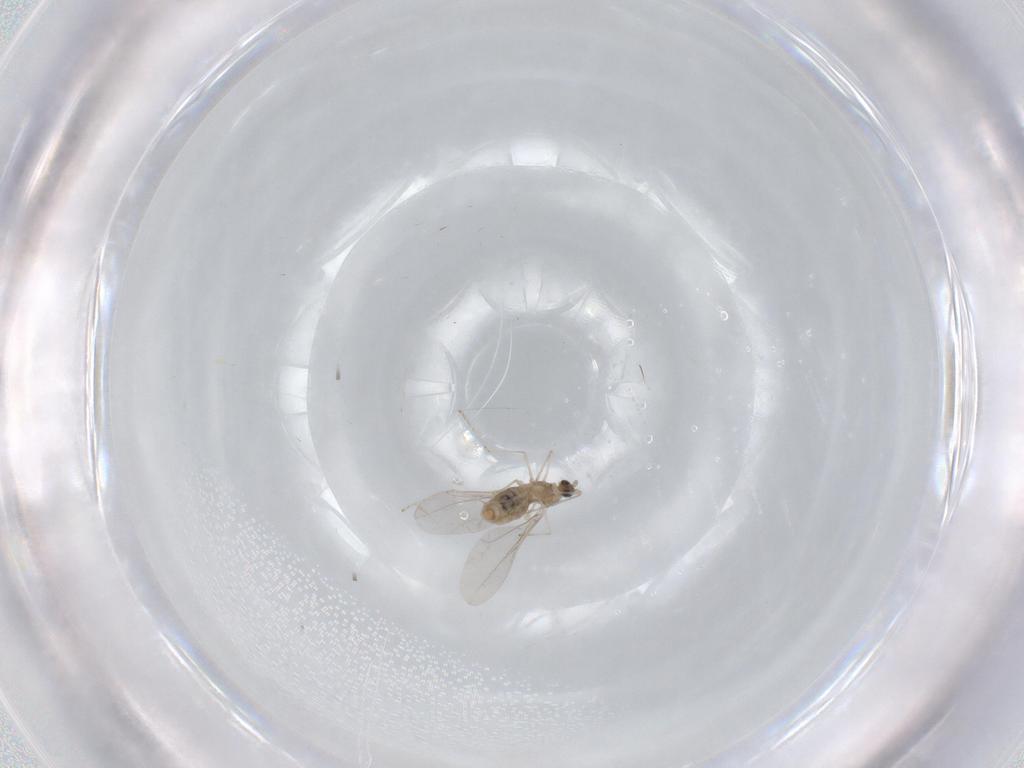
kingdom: Animalia
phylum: Arthropoda
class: Insecta
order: Diptera
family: Cecidomyiidae
